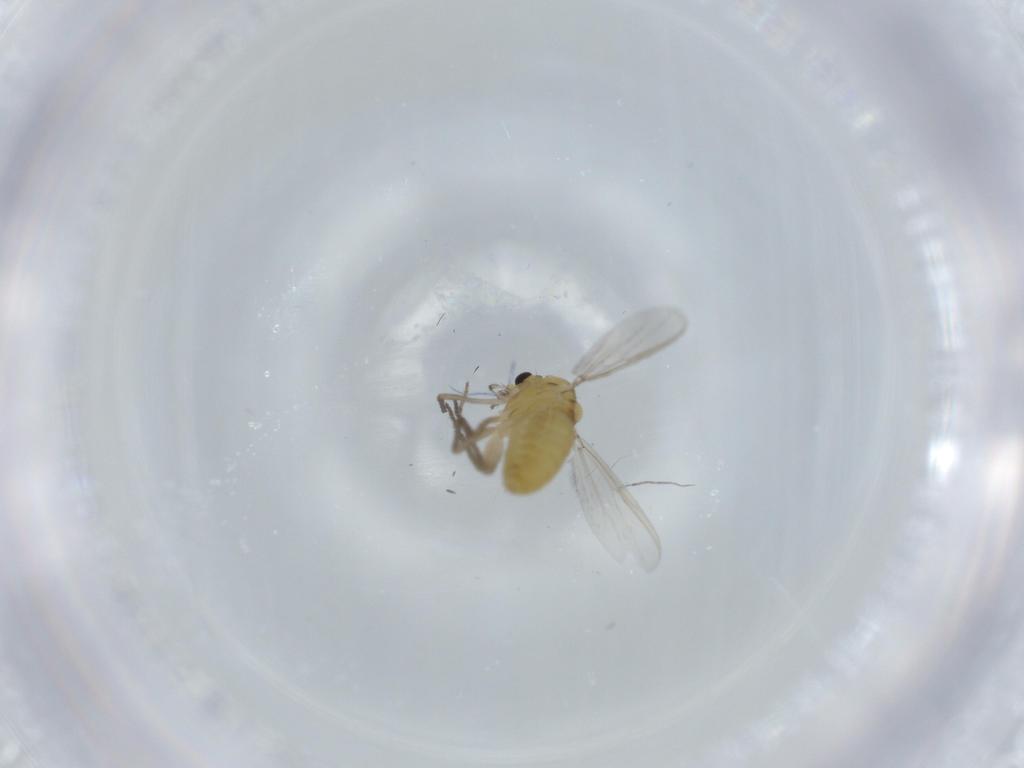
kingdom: Animalia
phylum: Arthropoda
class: Insecta
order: Diptera
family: Chironomidae
